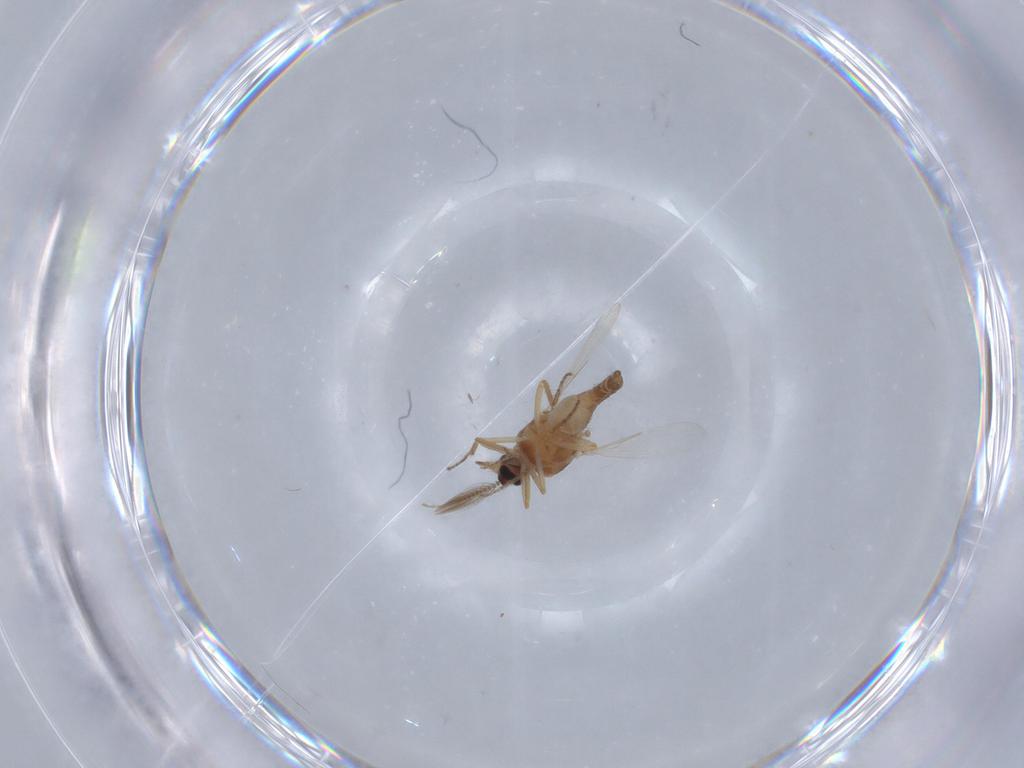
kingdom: Animalia
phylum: Arthropoda
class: Insecta
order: Diptera
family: Ceratopogonidae
